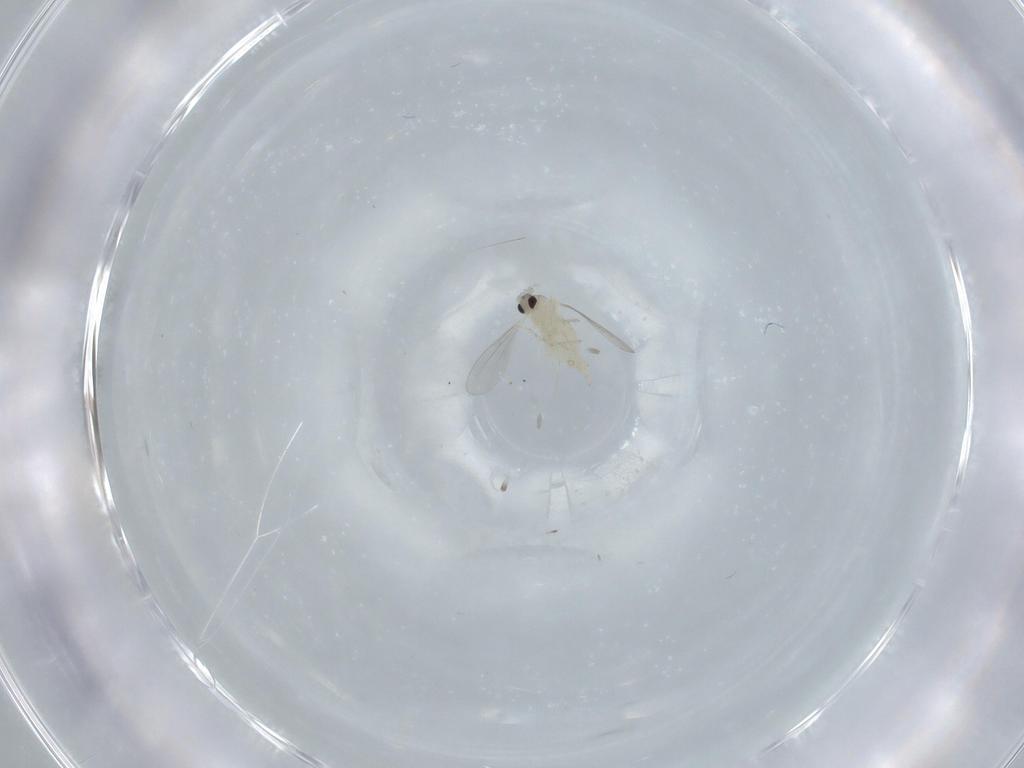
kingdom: Animalia
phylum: Arthropoda
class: Insecta
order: Diptera
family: Cecidomyiidae
